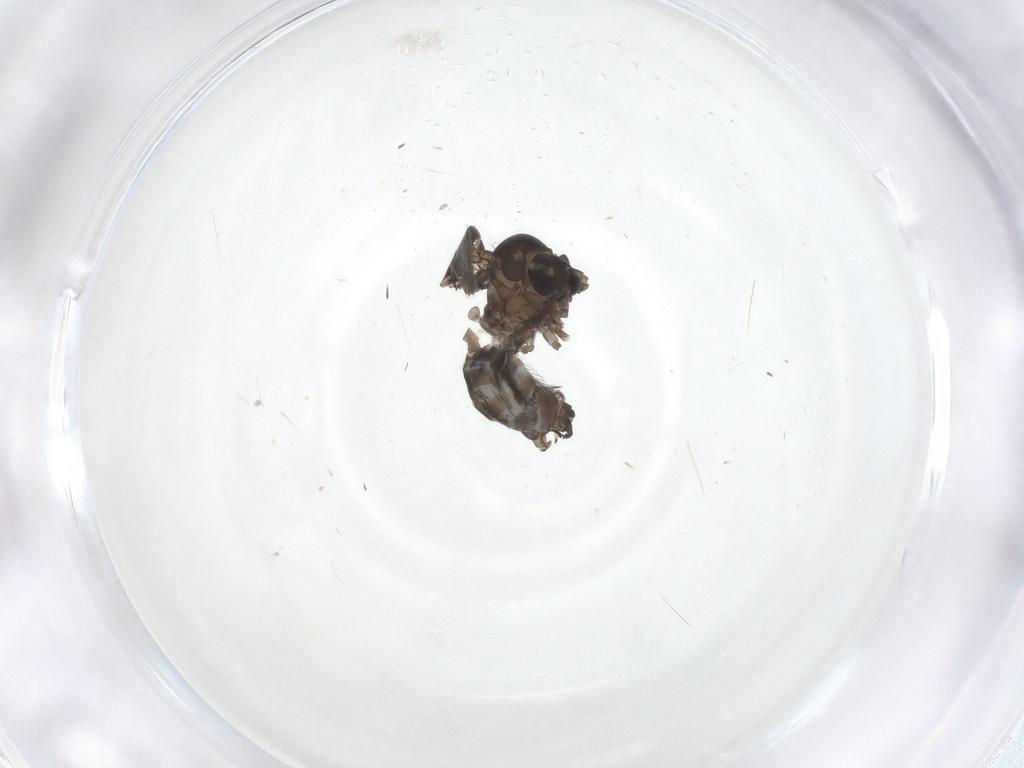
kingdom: Animalia
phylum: Arthropoda
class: Insecta
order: Diptera
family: Psychodidae
